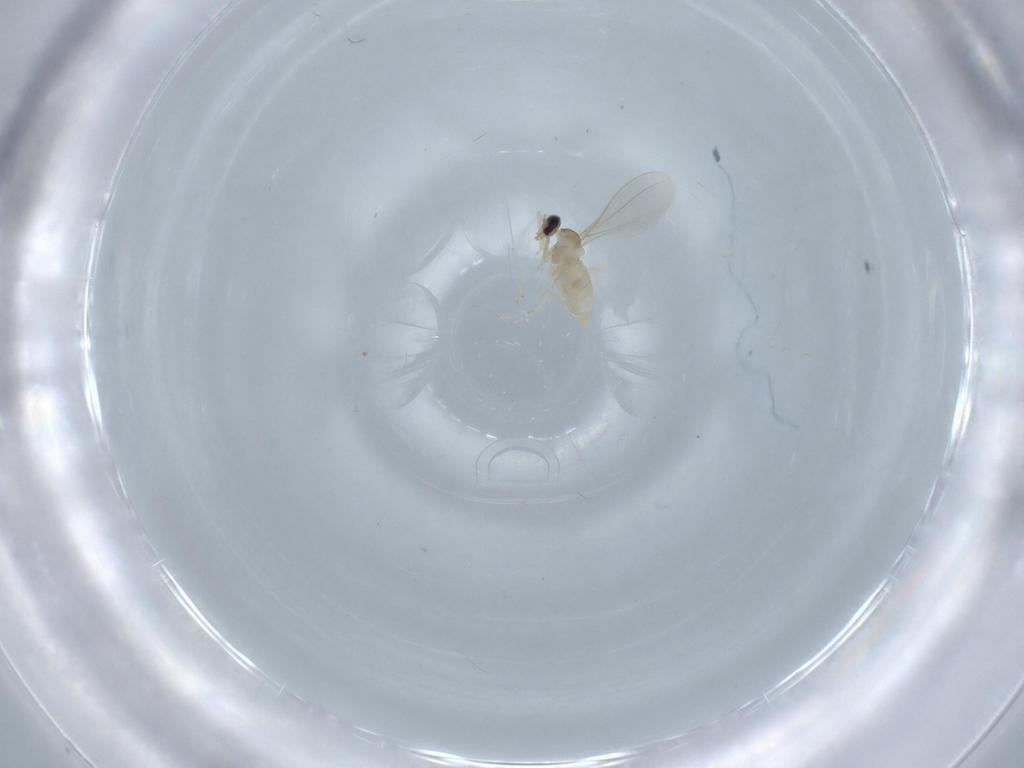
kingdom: Animalia
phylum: Arthropoda
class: Insecta
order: Diptera
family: Cecidomyiidae
